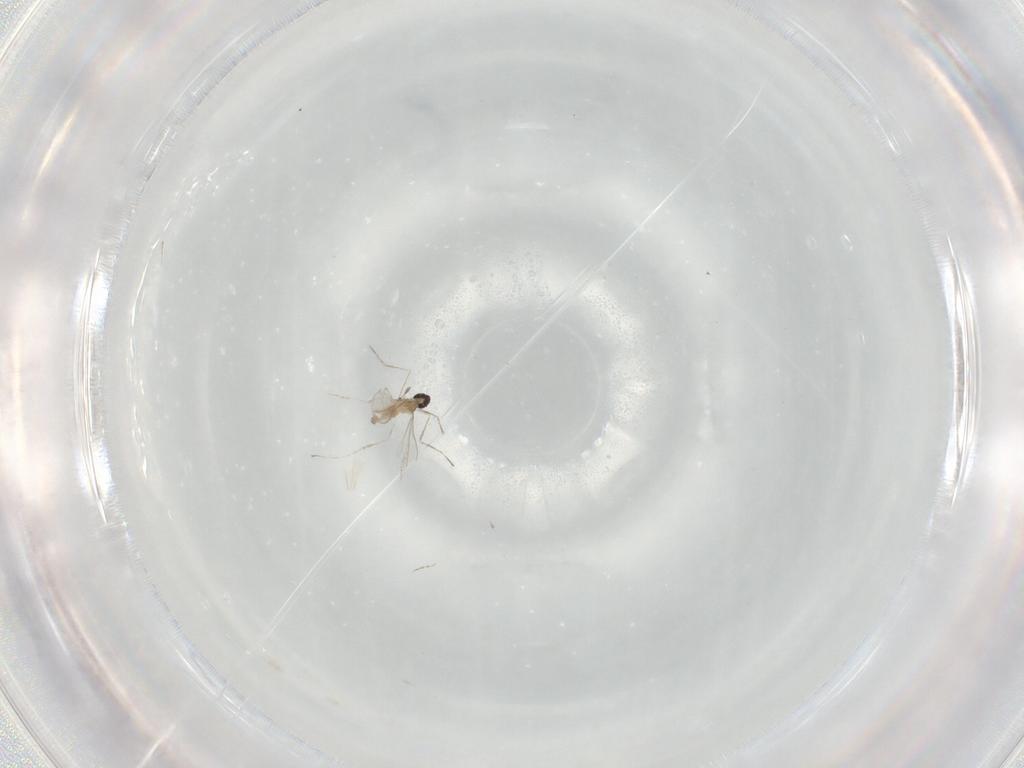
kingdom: Animalia
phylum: Arthropoda
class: Insecta
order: Diptera
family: Cecidomyiidae
